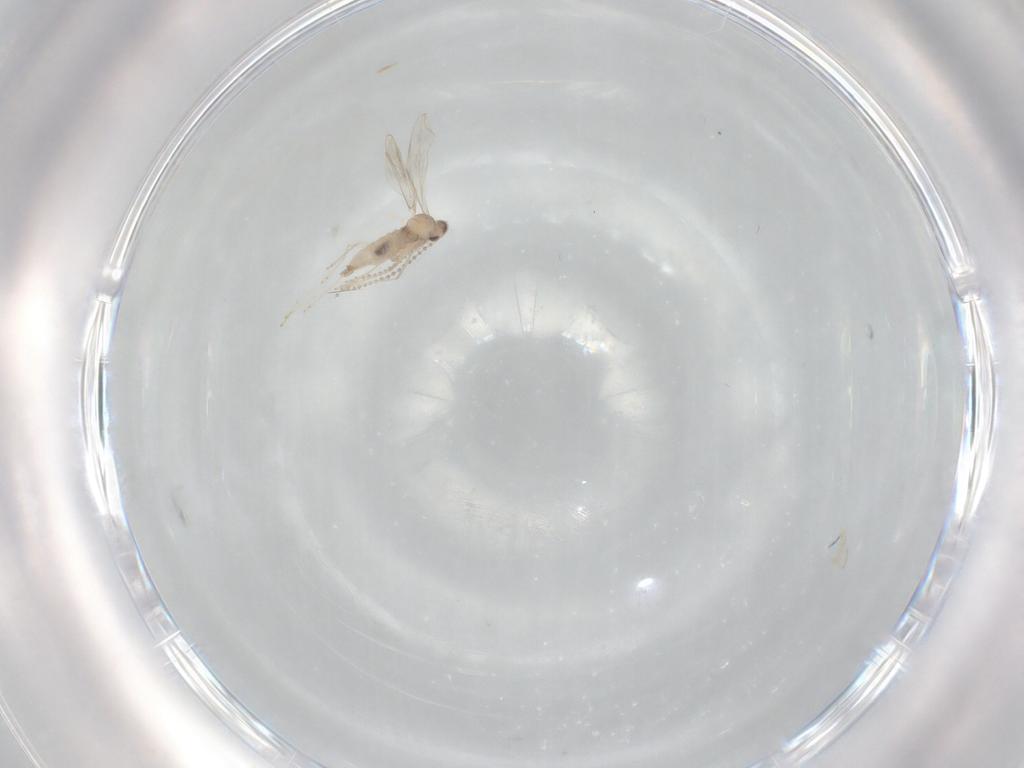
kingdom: Animalia
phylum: Arthropoda
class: Insecta
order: Diptera
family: Cecidomyiidae
